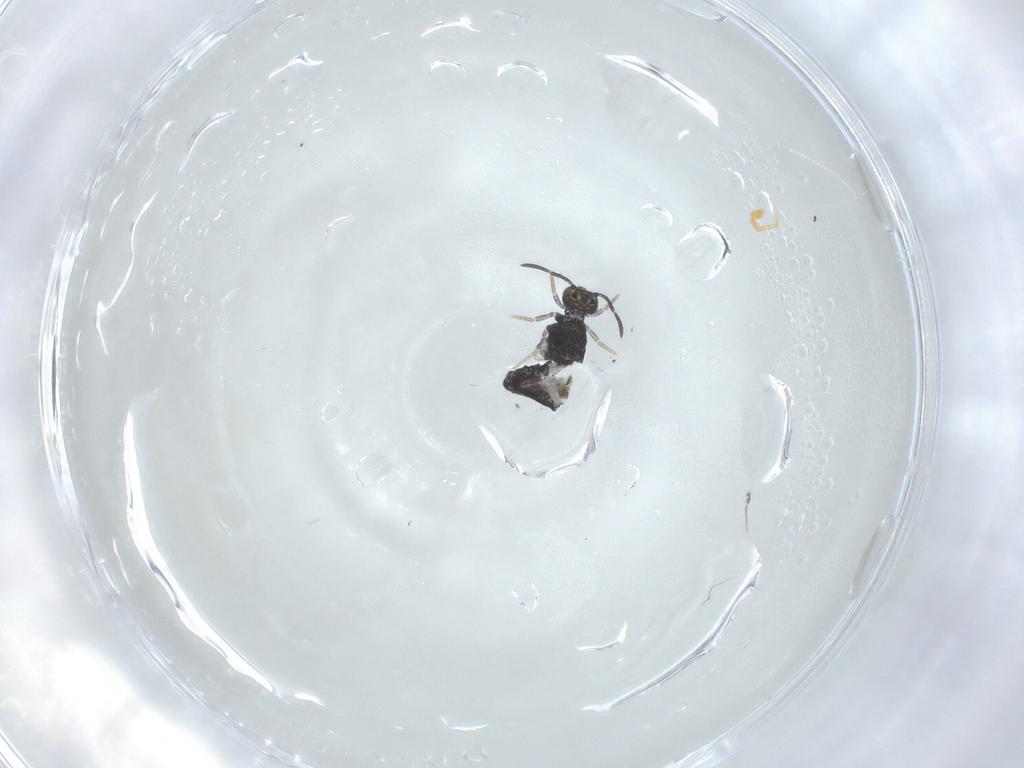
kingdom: Animalia
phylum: Arthropoda
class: Collembola
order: Symphypleona
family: Katiannidae
